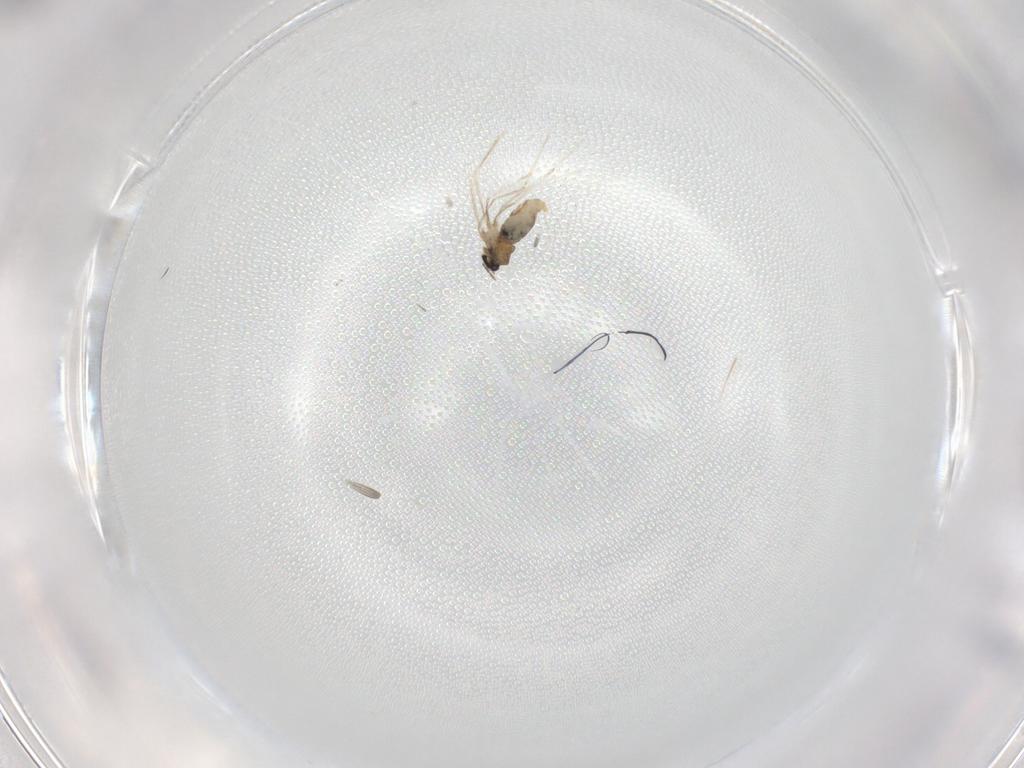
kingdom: Animalia
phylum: Arthropoda
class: Insecta
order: Diptera
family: Cecidomyiidae
